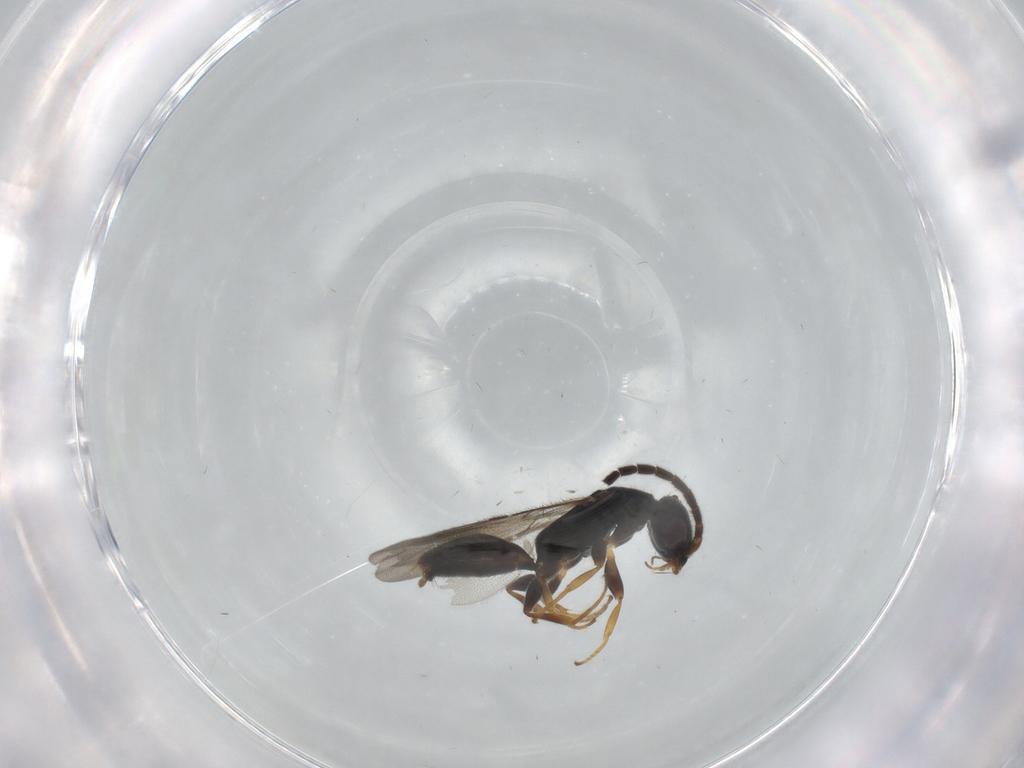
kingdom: Animalia
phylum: Arthropoda
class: Insecta
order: Hymenoptera
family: Bethylidae
